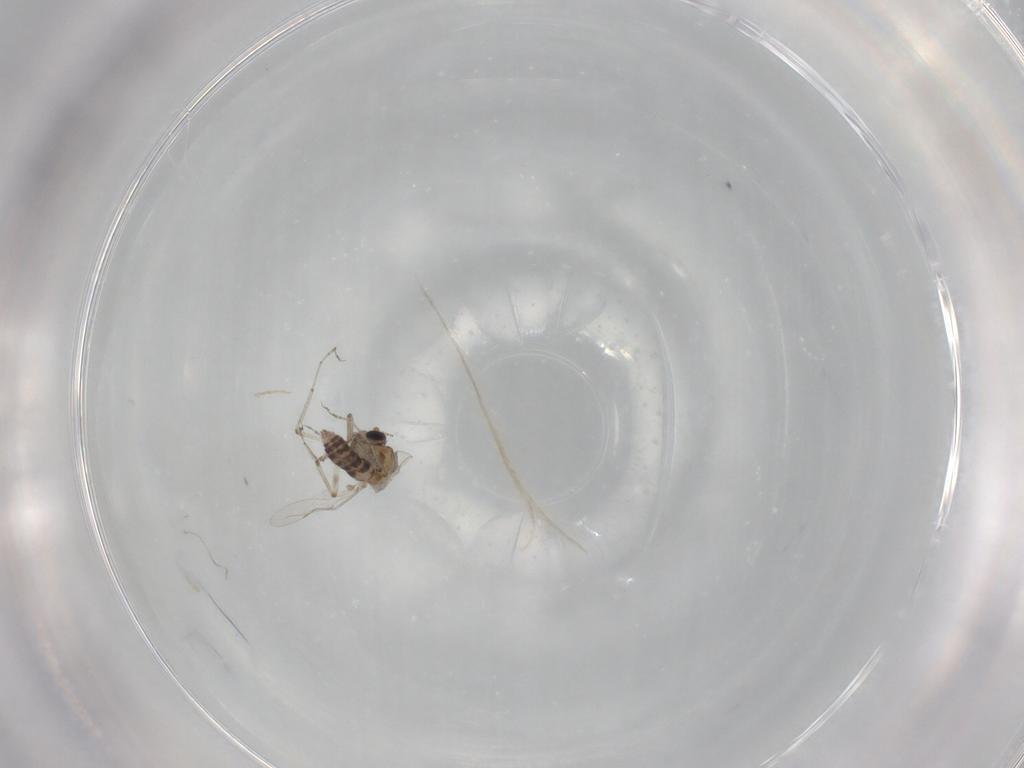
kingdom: Animalia
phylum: Arthropoda
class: Insecta
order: Diptera
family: Ceratopogonidae
